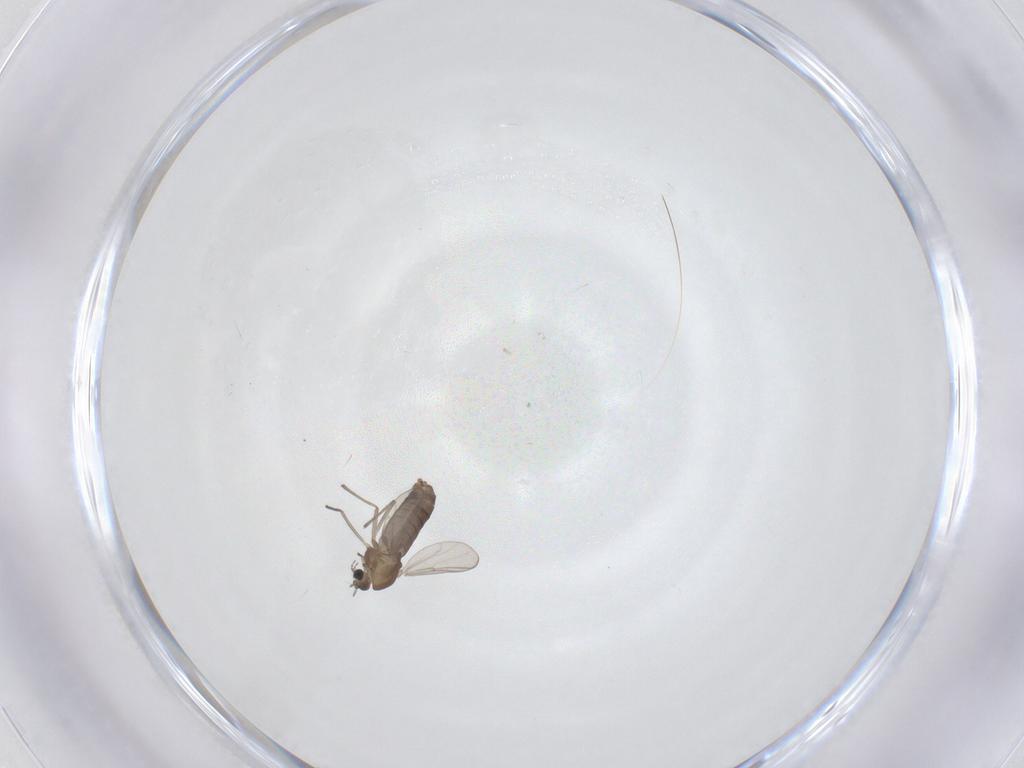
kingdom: Animalia
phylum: Arthropoda
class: Insecta
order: Diptera
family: Chironomidae
